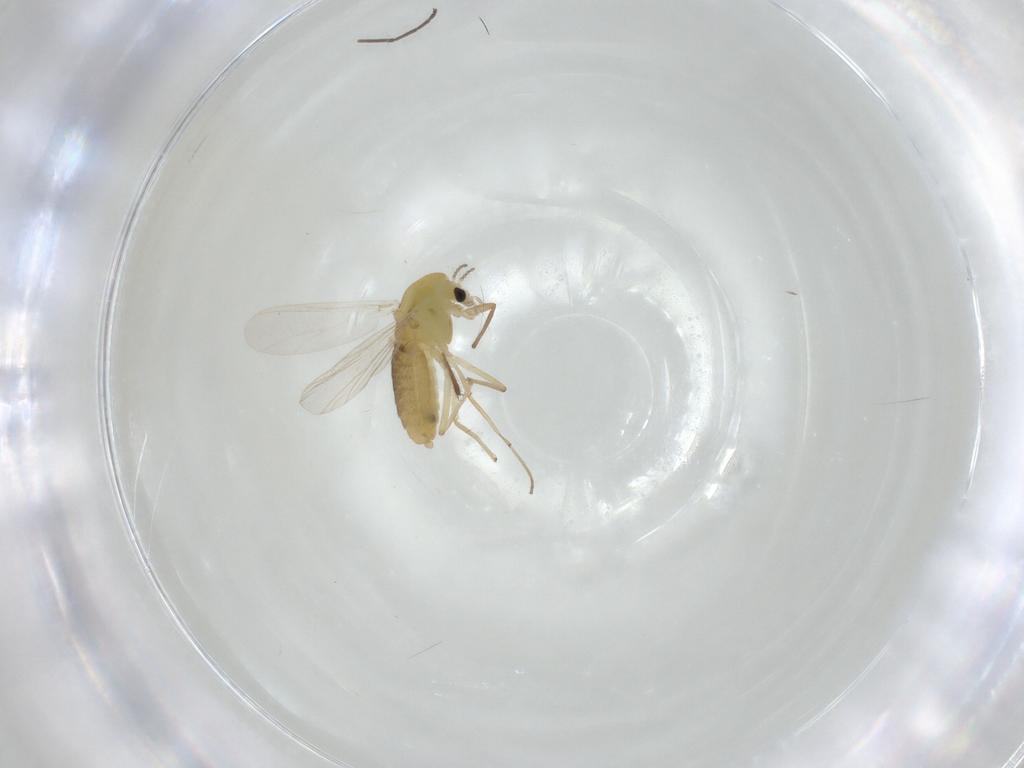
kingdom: Animalia
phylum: Arthropoda
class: Insecta
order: Diptera
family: Chironomidae
